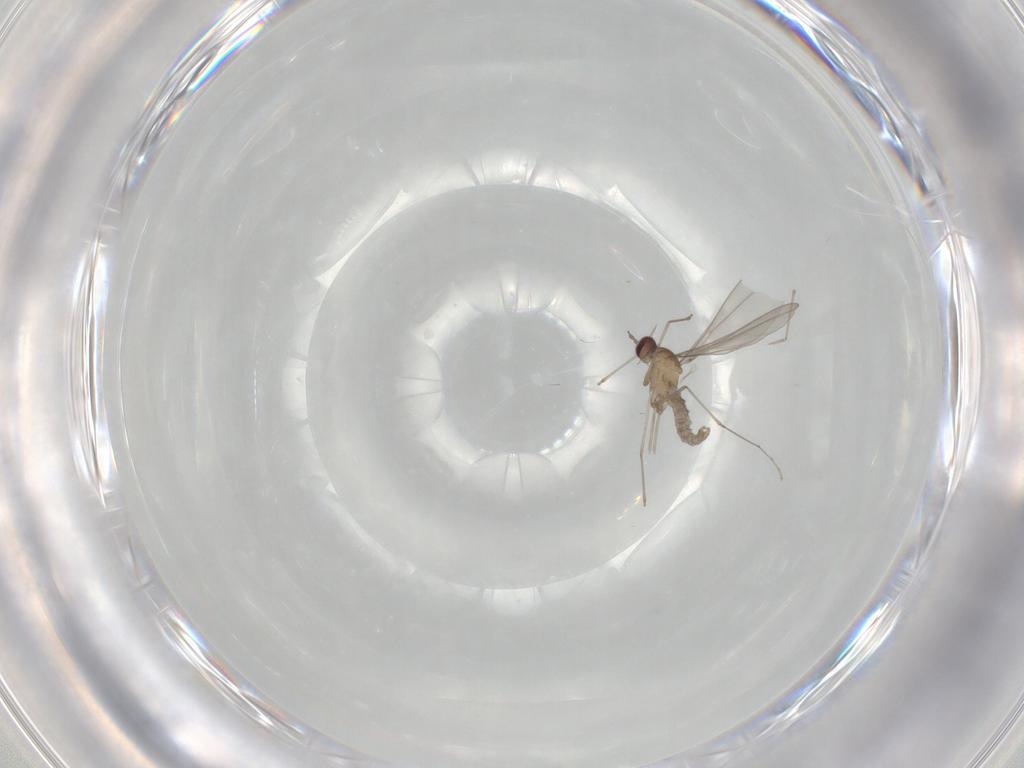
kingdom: Animalia
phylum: Arthropoda
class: Insecta
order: Diptera
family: Cecidomyiidae
